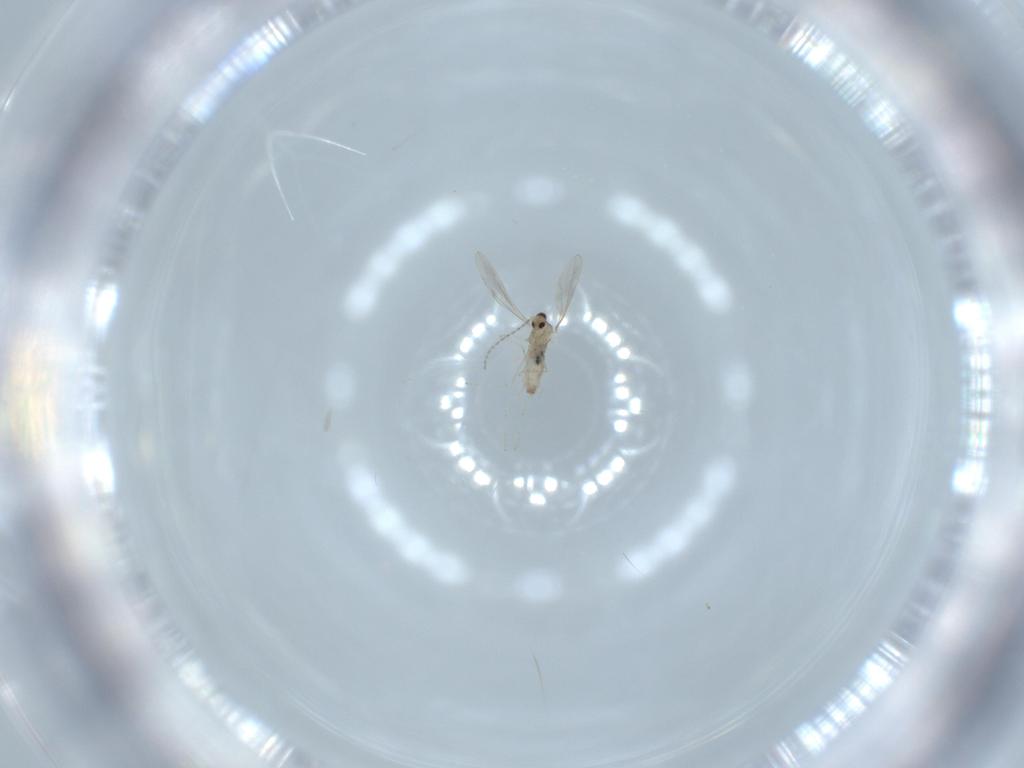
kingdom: Animalia
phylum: Arthropoda
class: Insecta
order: Diptera
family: Cecidomyiidae
